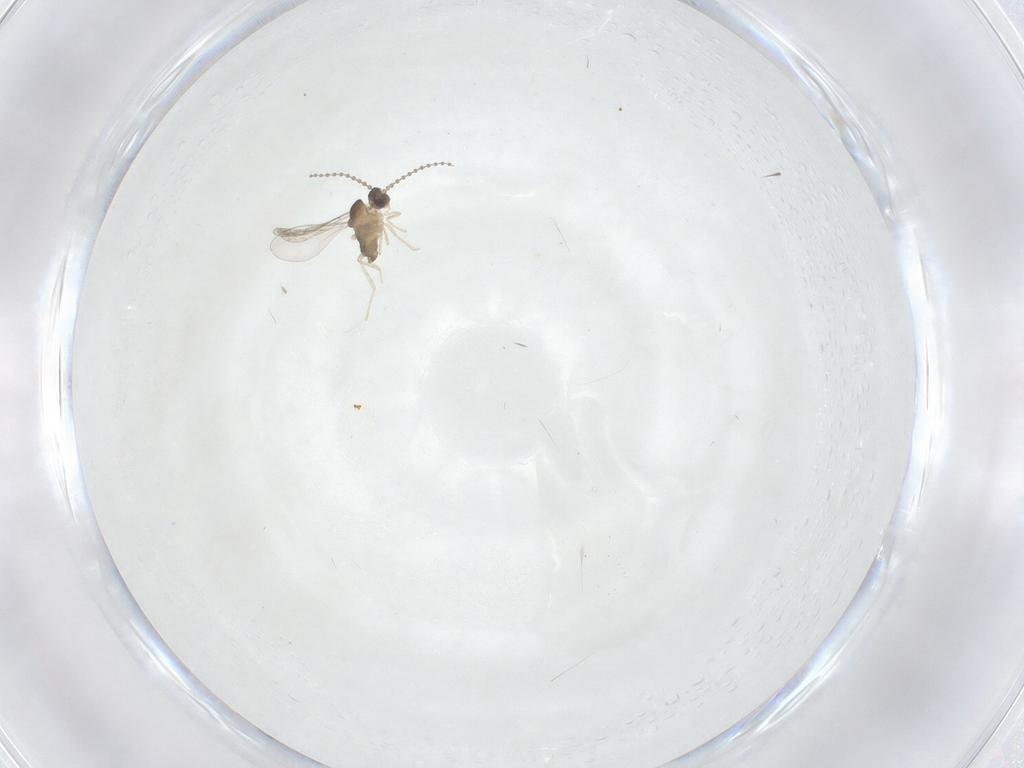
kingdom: Animalia
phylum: Arthropoda
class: Insecta
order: Diptera
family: Cecidomyiidae
